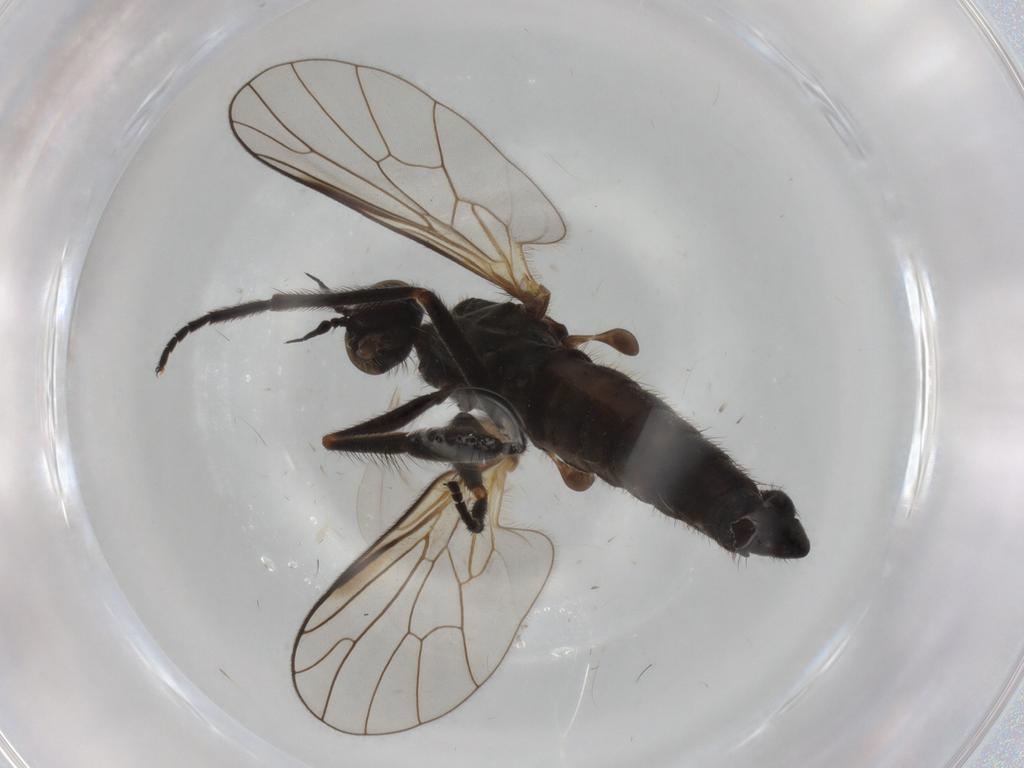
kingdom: Animalia
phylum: Arthropoda
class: Insecta
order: Diptera
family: Empididae
